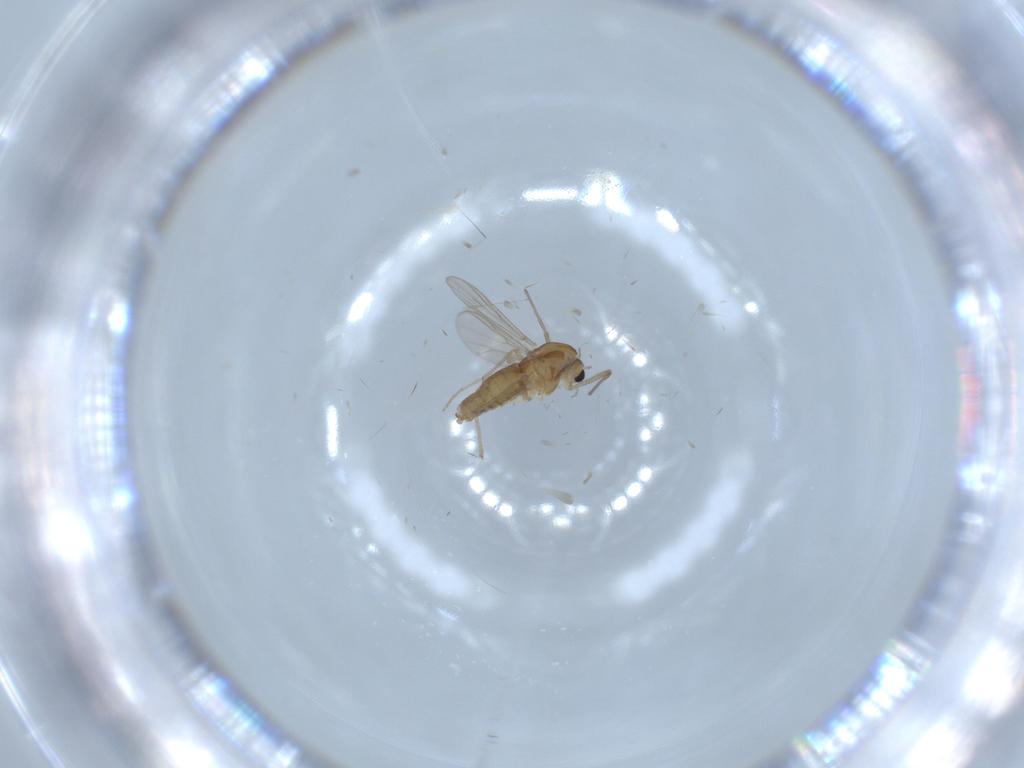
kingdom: Animalia
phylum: Arthropoda
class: Insecta
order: Diptera
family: Chironomidae
